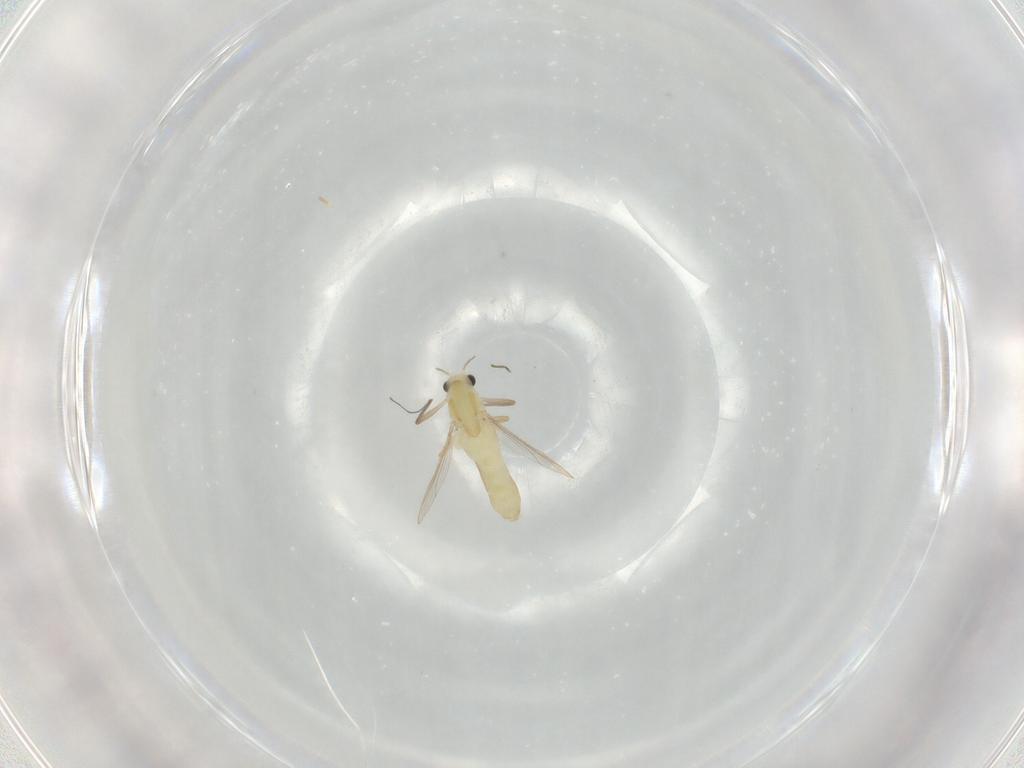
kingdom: Animalia
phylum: Arthropoda
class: Insecta
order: Diptera
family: Chironomidae
